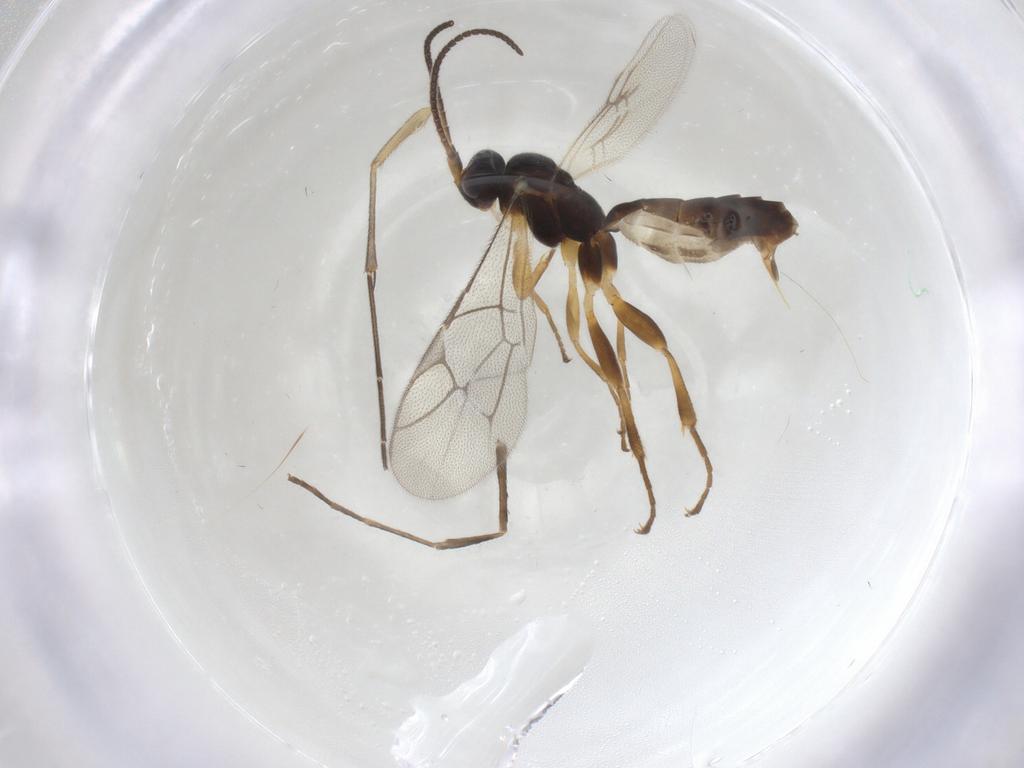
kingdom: Animalia
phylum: Arthropoda
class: Insecta
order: Hymenoptera
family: Ichneumonidae
